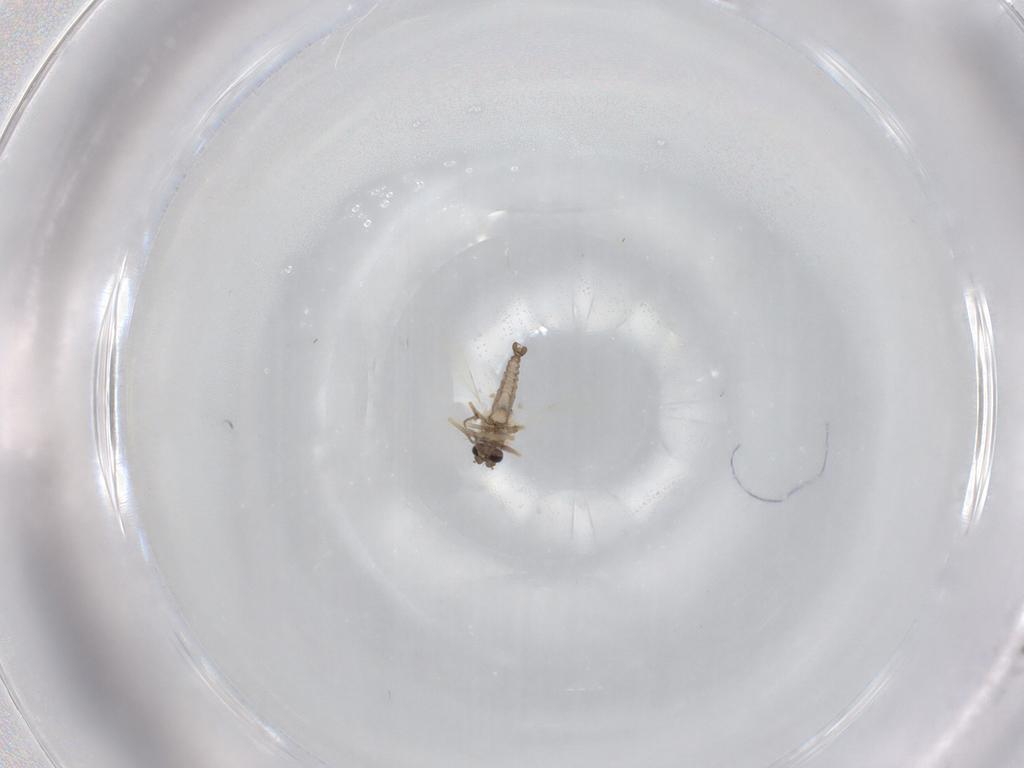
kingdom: Animalia
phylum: Arthropoda
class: Insecta
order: Diptera
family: Ceratopogonidae
